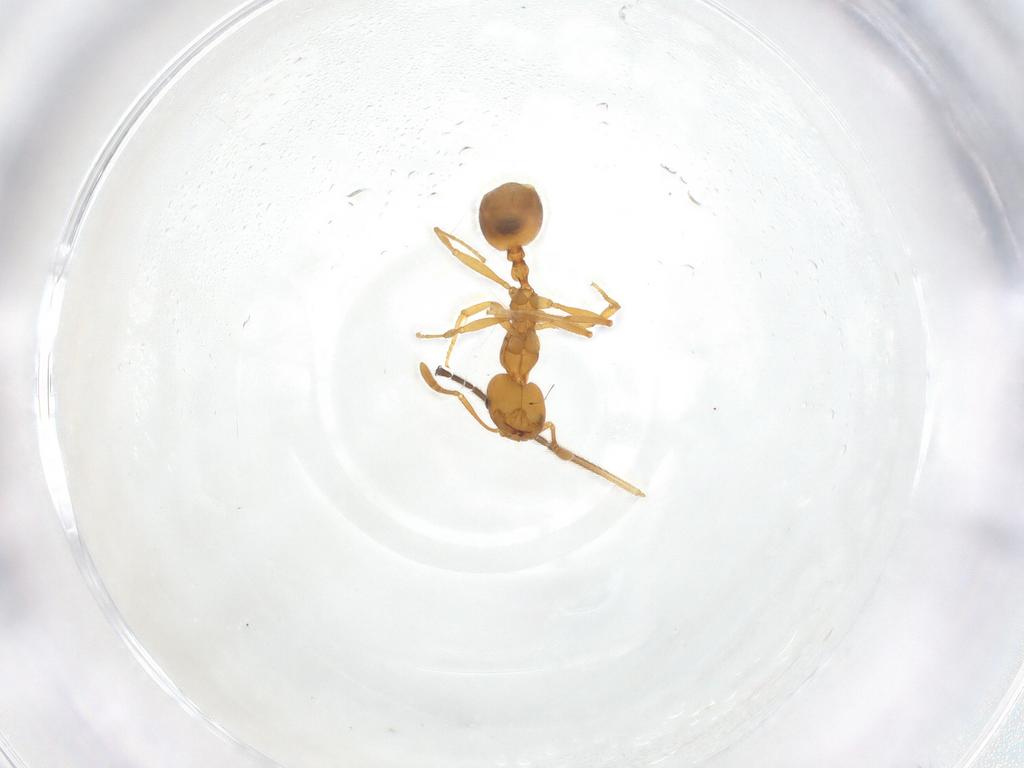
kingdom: Animalia
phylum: Arthropoda
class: Insecta
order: Hymenoptera
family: Formicidae
